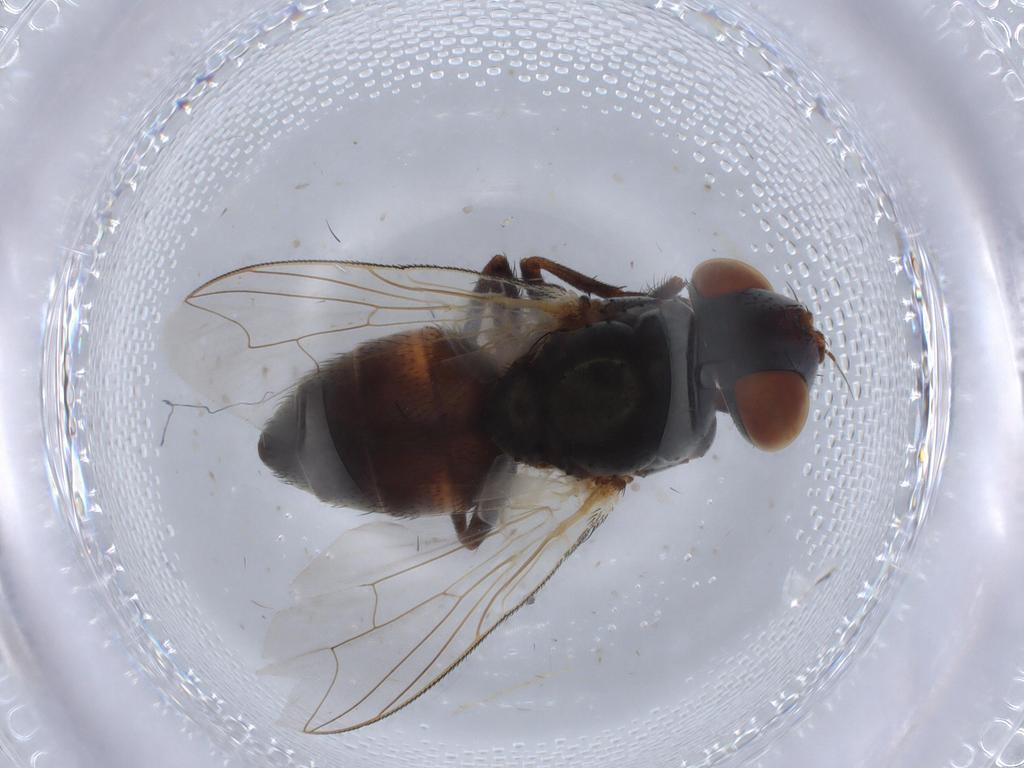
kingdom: Animalia
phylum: Arthropoda
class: Insecta
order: Diptera
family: Sarcophagidae
